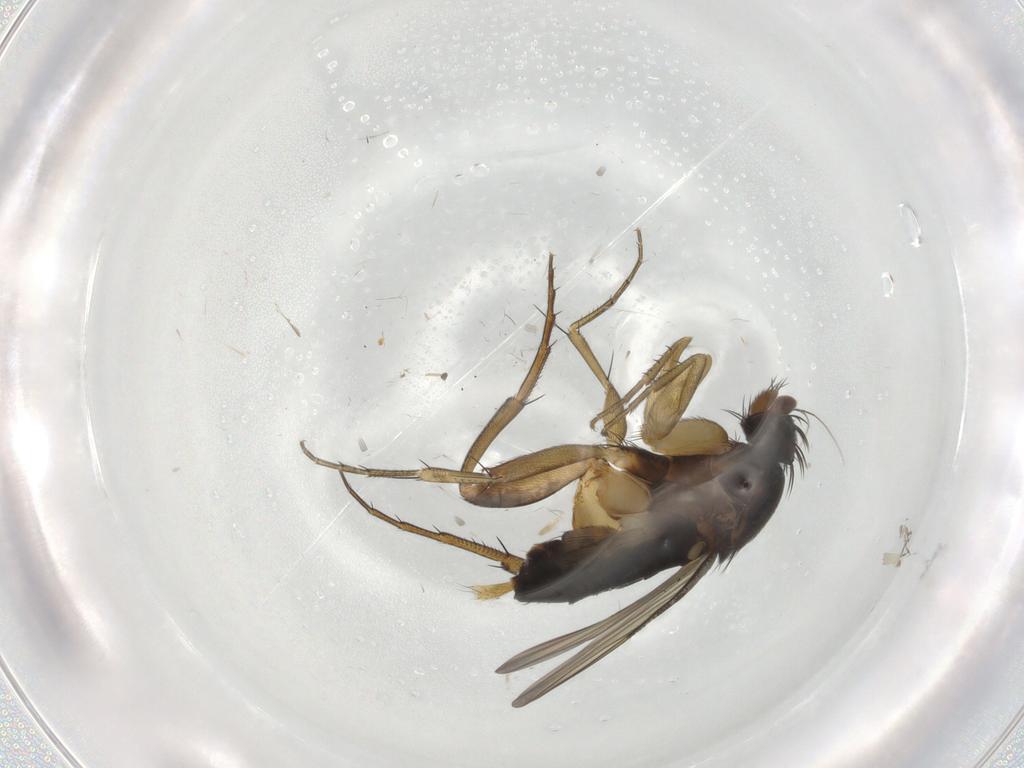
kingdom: Animalia
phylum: Arthropoda
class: Insecta
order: Diptera
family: Phoridae
